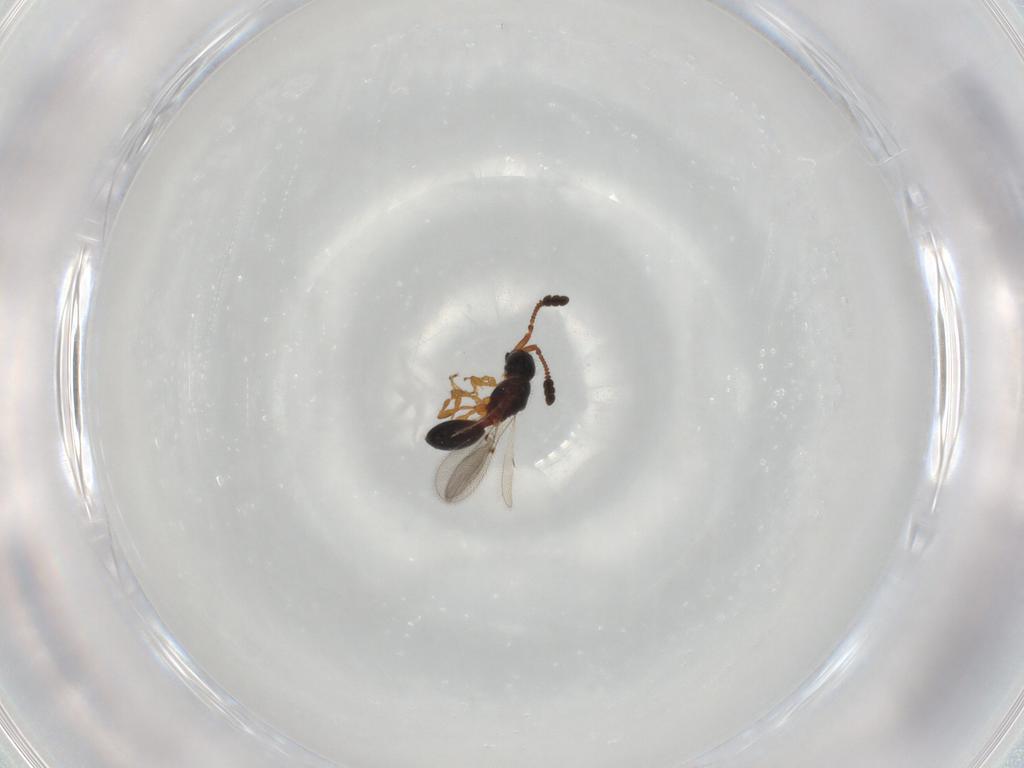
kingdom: Animalia
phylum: Arthropoda
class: Insecta
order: Hymenoptera
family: Diapriidae
